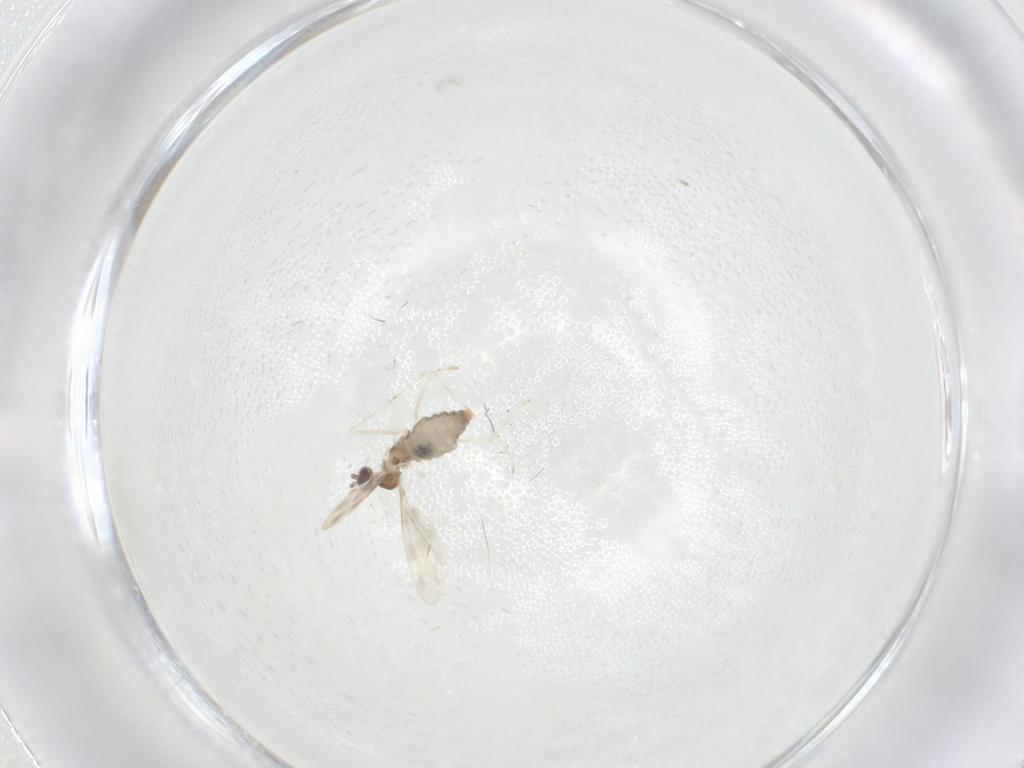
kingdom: Animalia
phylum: Arthropoda
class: Insecta
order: Diptera
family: Cecidomyiidae
